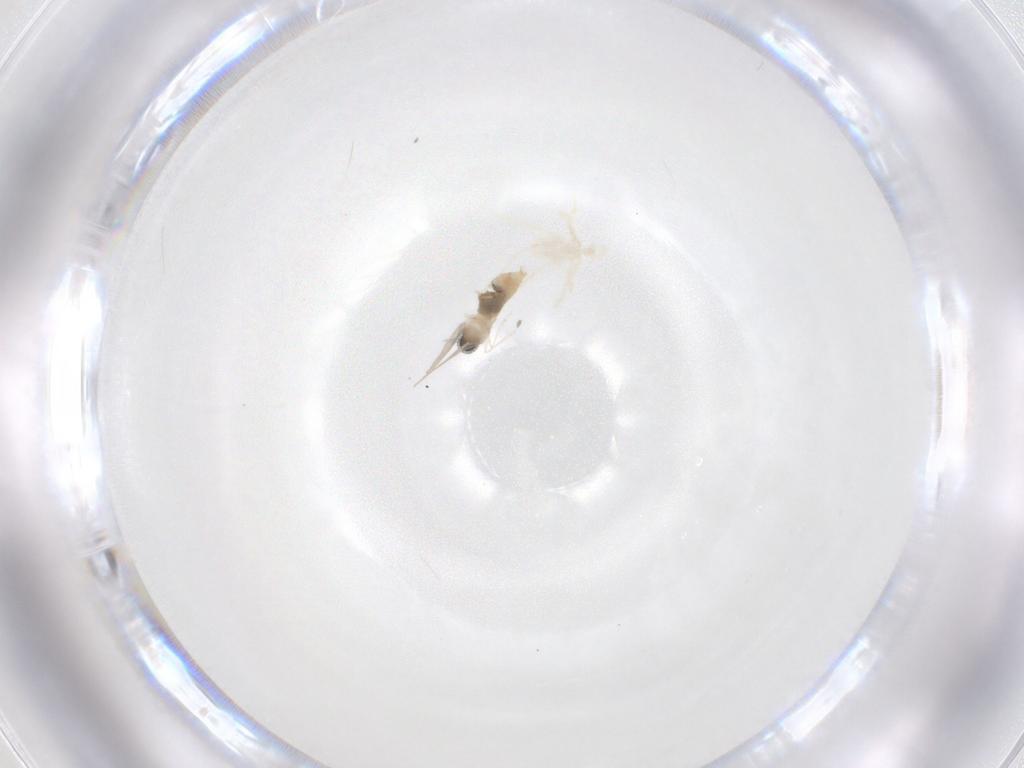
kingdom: Animalia
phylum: Arthropoda
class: Insecta
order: Diptera
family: Cecidomyiidae
